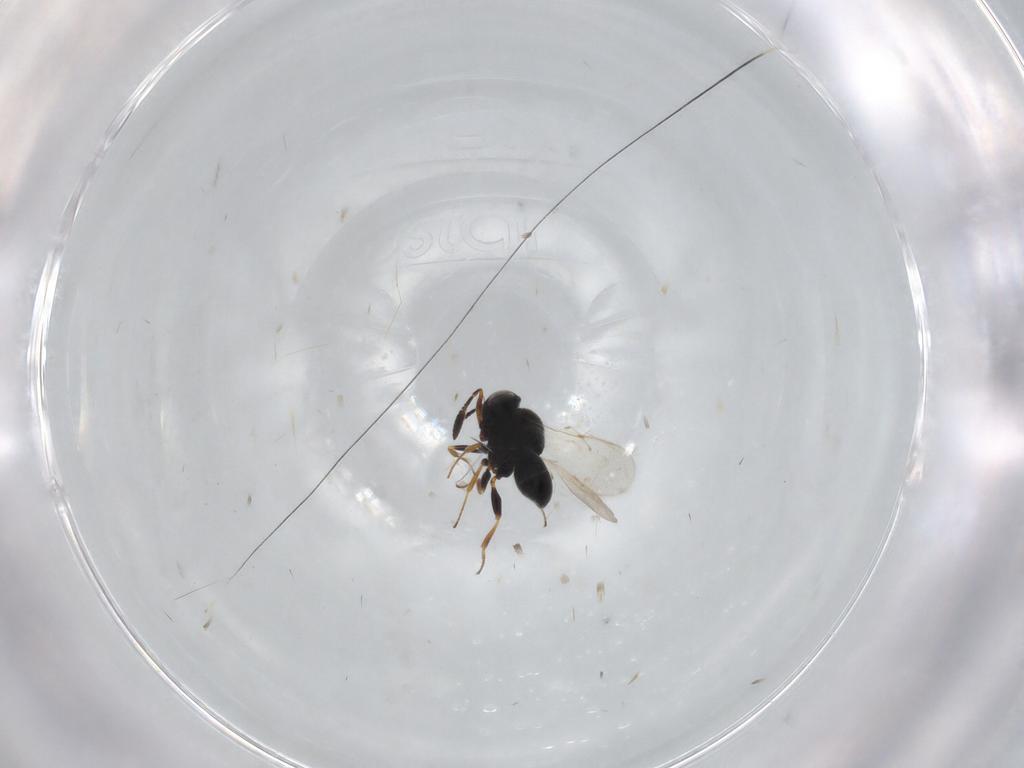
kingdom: Animalia
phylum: Arthropoda
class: Insecta
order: Coleoptera
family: Curculionidae
